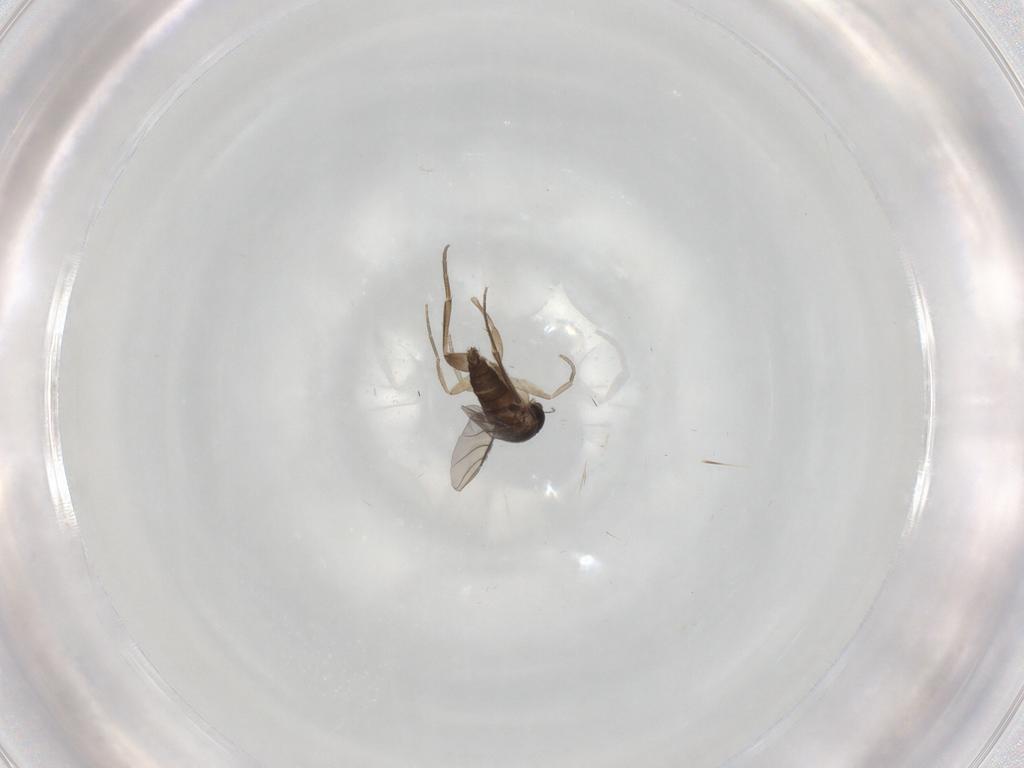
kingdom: Animalia
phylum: Arthropoda
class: Insecta
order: Diptera
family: Phoridae
